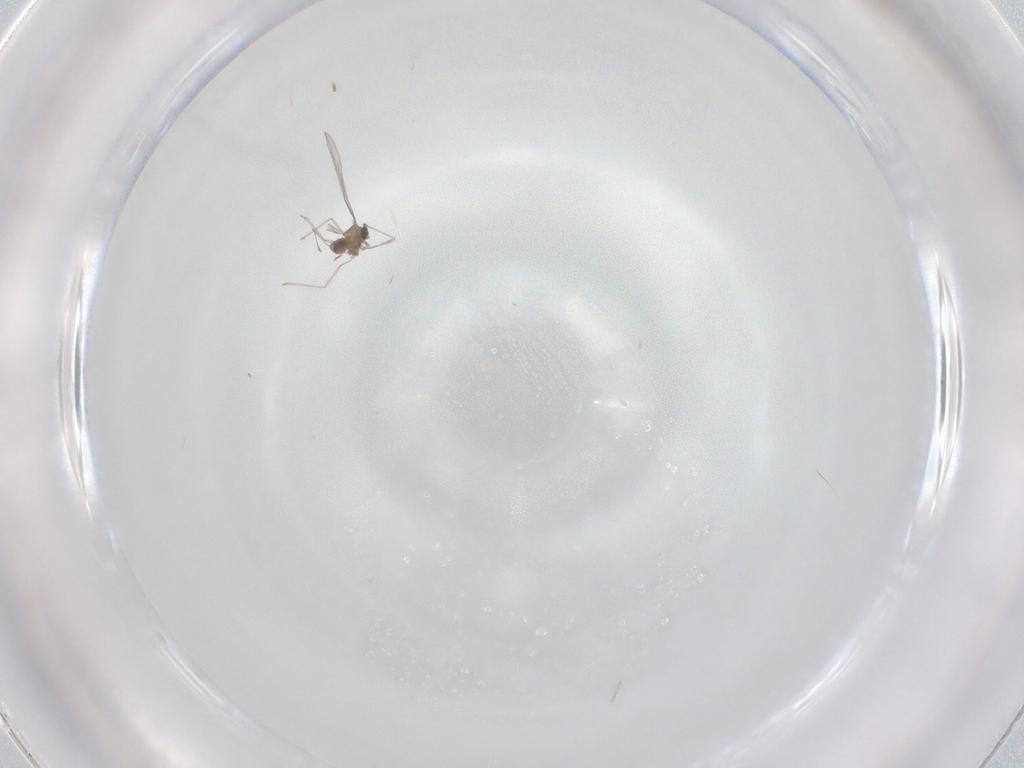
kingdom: Animalia
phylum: Arthropoda
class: Insecta
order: Diptera
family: Cecidomyiidae
